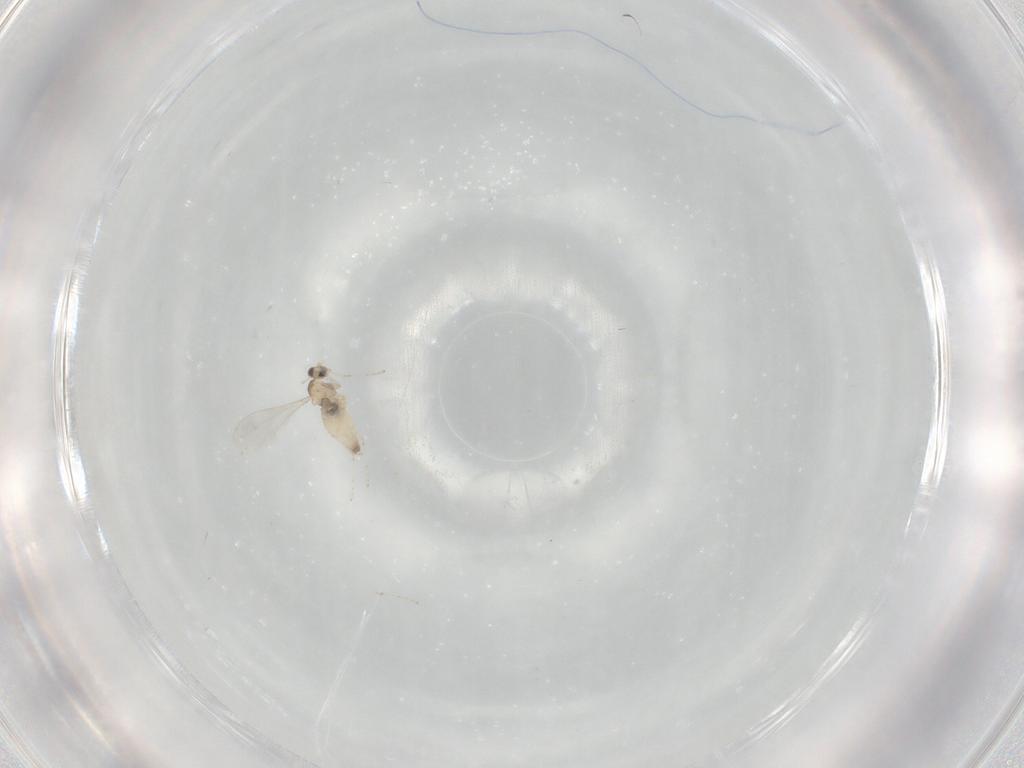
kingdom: Animalia
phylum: Arthropoda
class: Insecta
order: Diptera
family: Cecidomyiidae
